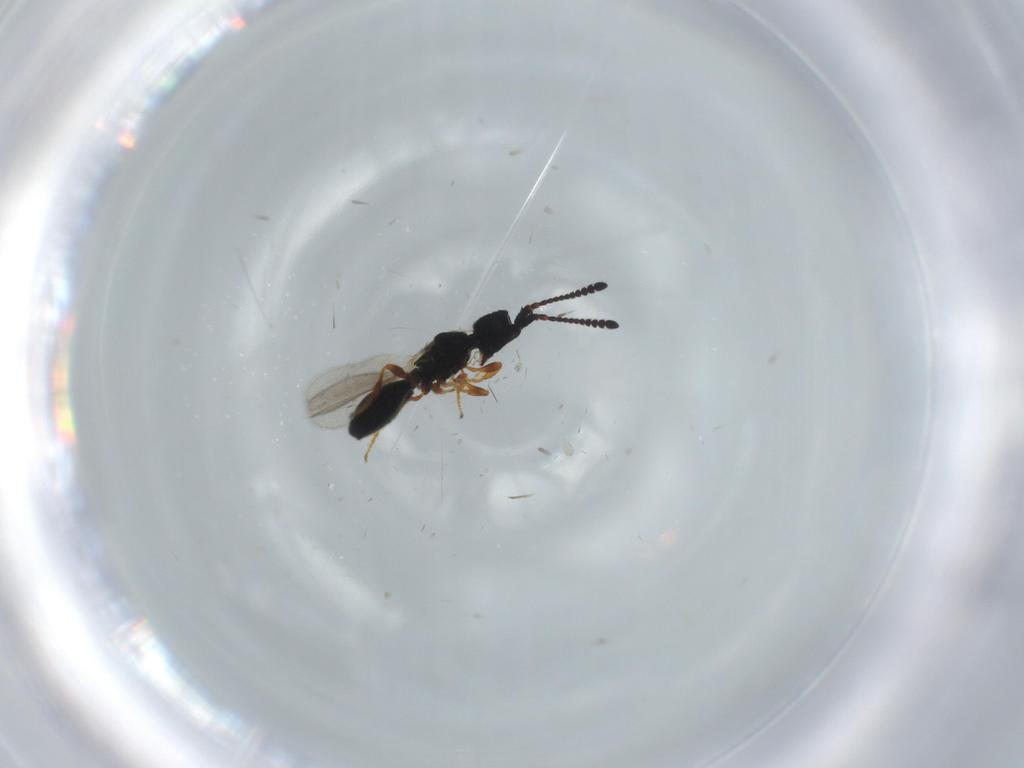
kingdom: Animalia
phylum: Arthropoda
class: Insecta
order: Hymenoptera
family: Diapriidae
